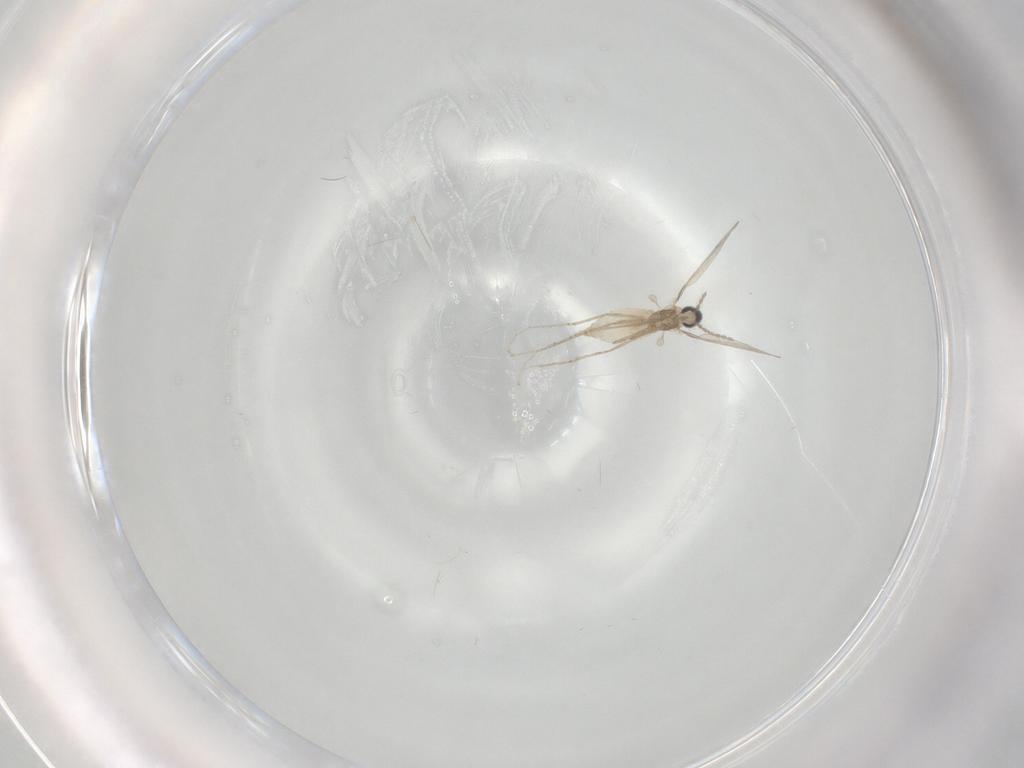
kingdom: Animalia
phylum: Arthropoda
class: Insecta
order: Diptera
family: Cecidomyiidae
